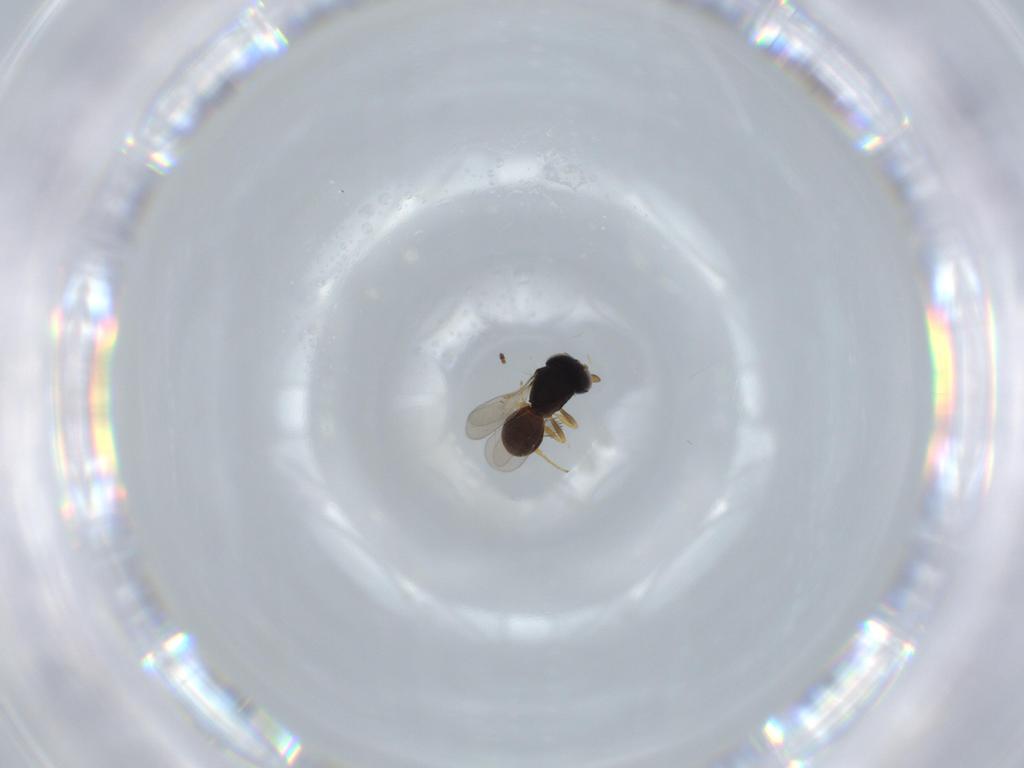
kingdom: Animalia
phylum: Arthropoda
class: Insecta
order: Hymenoptera
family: Scelionidae
